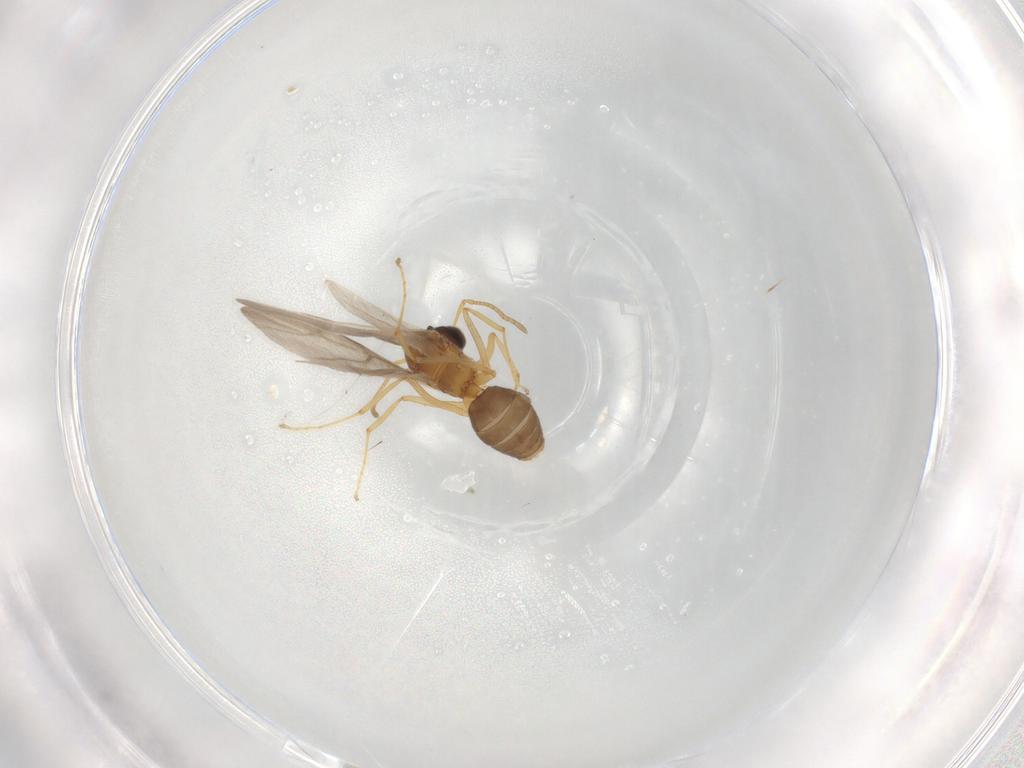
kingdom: Animalia
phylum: Arthropoda
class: Insecta
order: Hymenoptera
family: Formicidae
